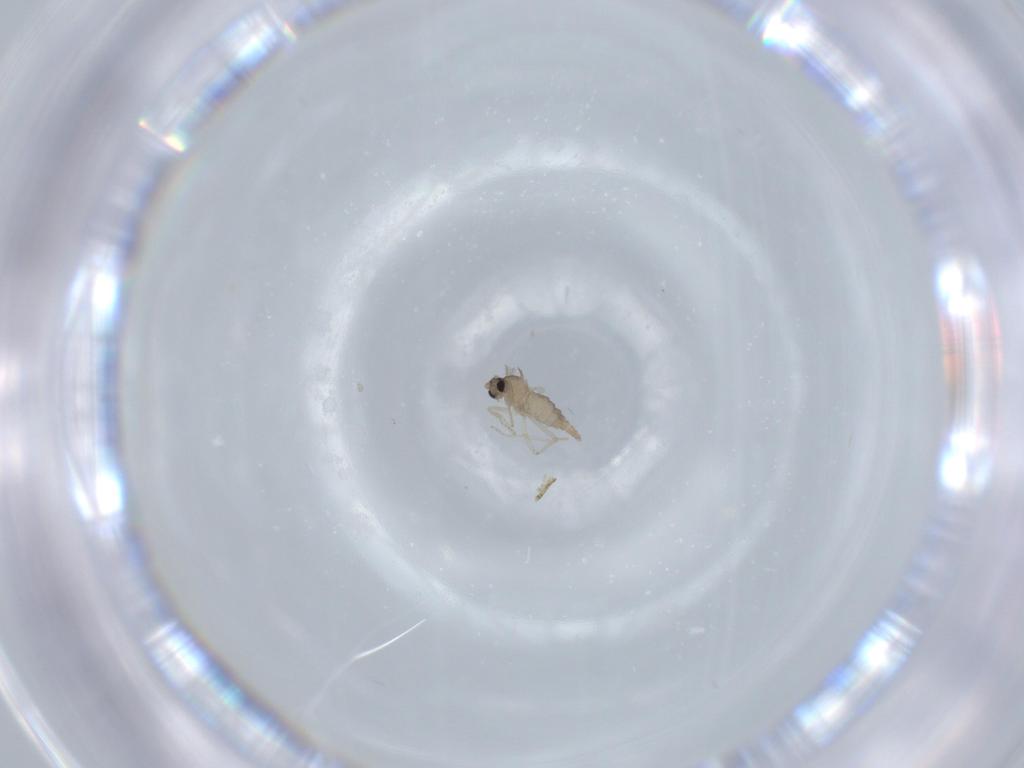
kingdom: Animalia
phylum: Arthropoda
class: Insecta
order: Diptera
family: Cecidomyiidae
